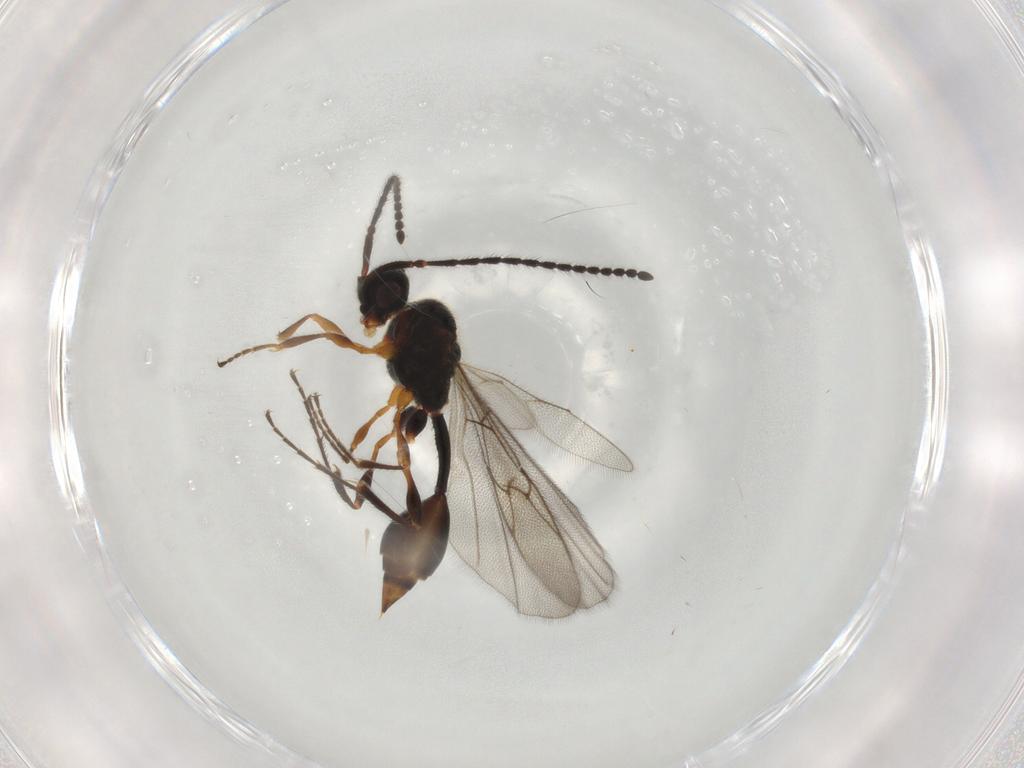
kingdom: Animalia
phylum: Arthropoda
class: Insecta
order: Hymenoptera
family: Diapriidae
